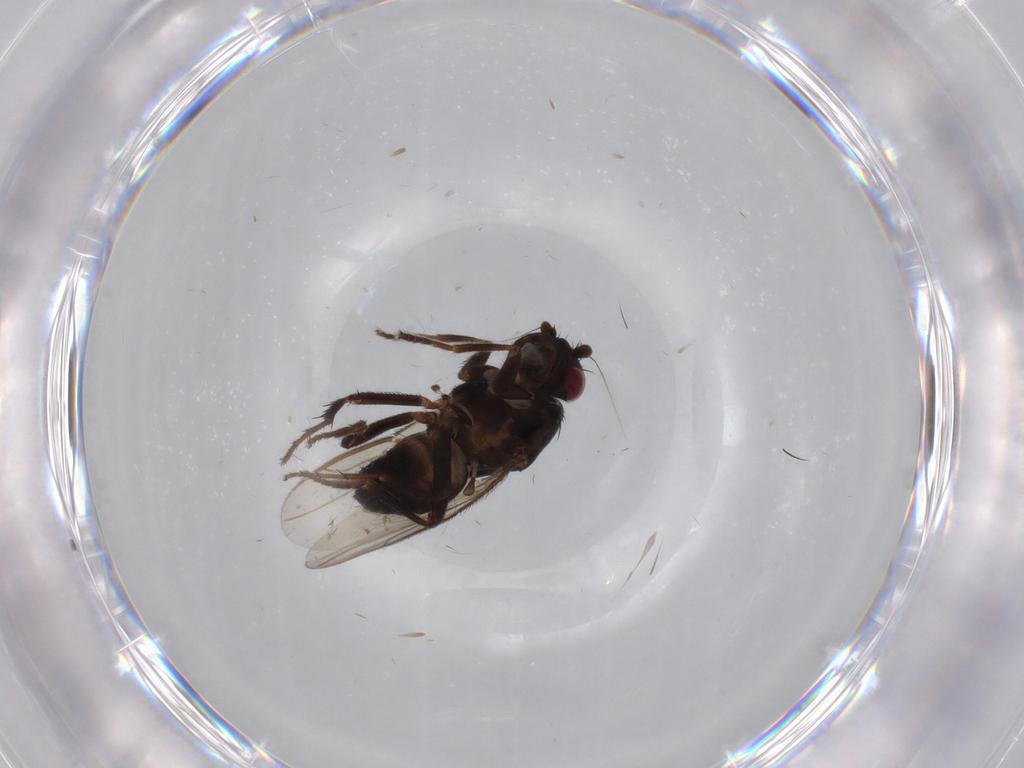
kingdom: Animalia
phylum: Arthropoda
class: Insecta
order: Diptera
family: Sphaeroceridae
